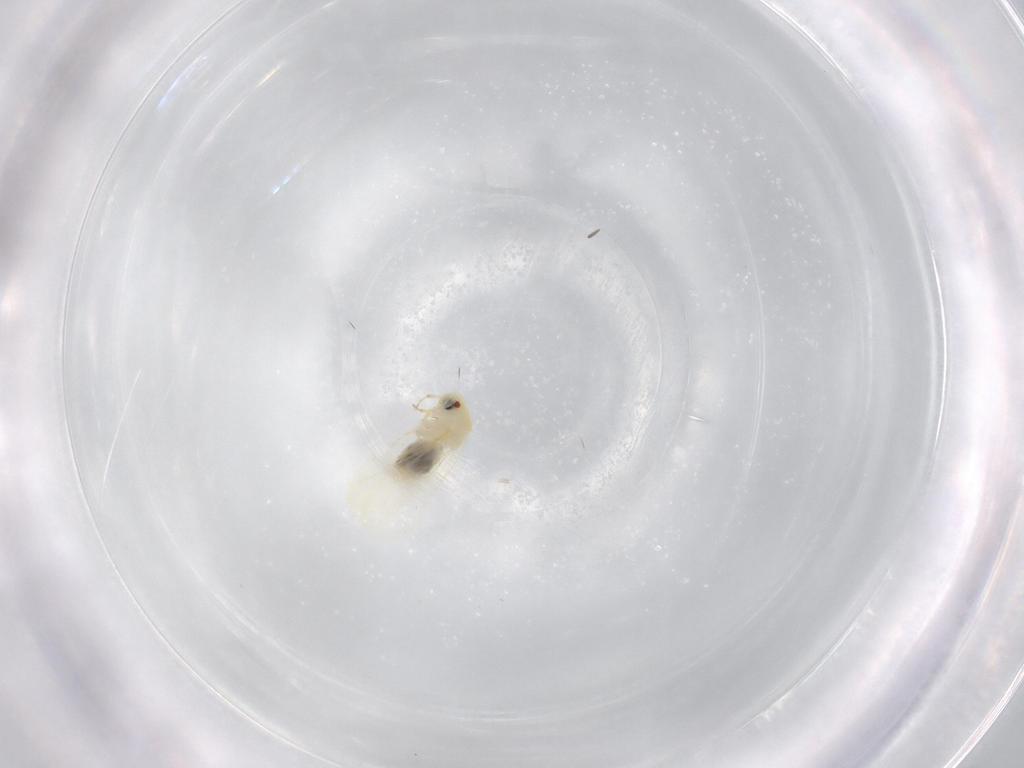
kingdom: Animalia
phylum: Arthropoda
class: Insecta
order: Hemiptera
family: Aleyrodidae
